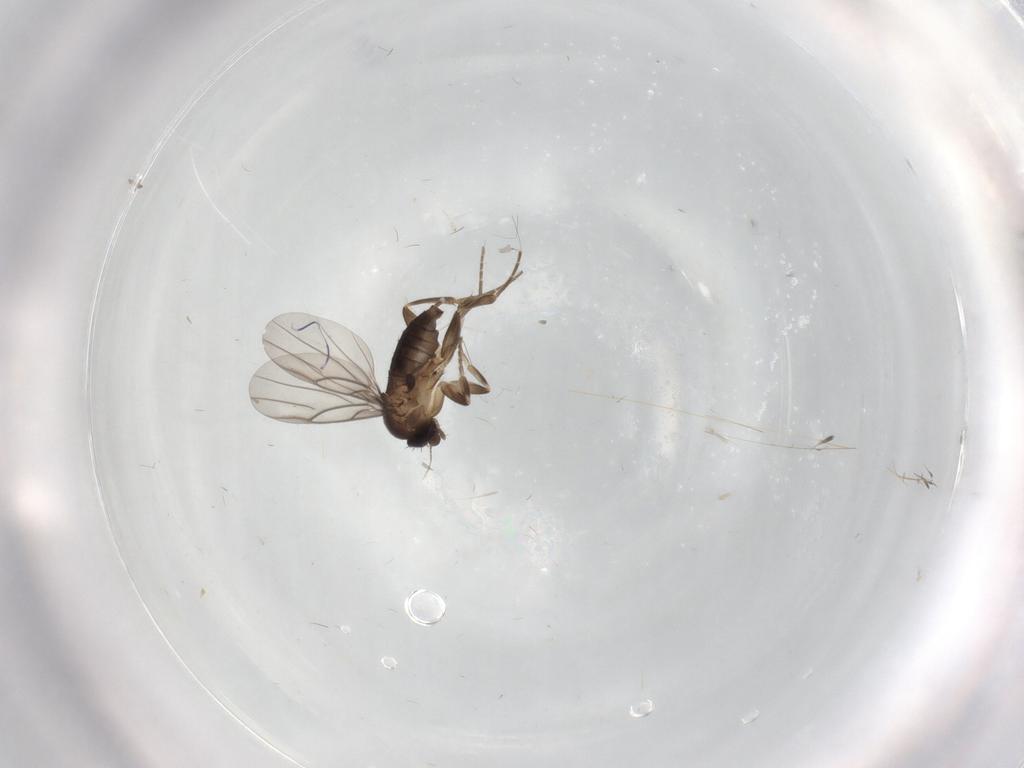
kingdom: Animalia
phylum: Arthropoda
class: Insecta
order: Diptera
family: Phoridae
